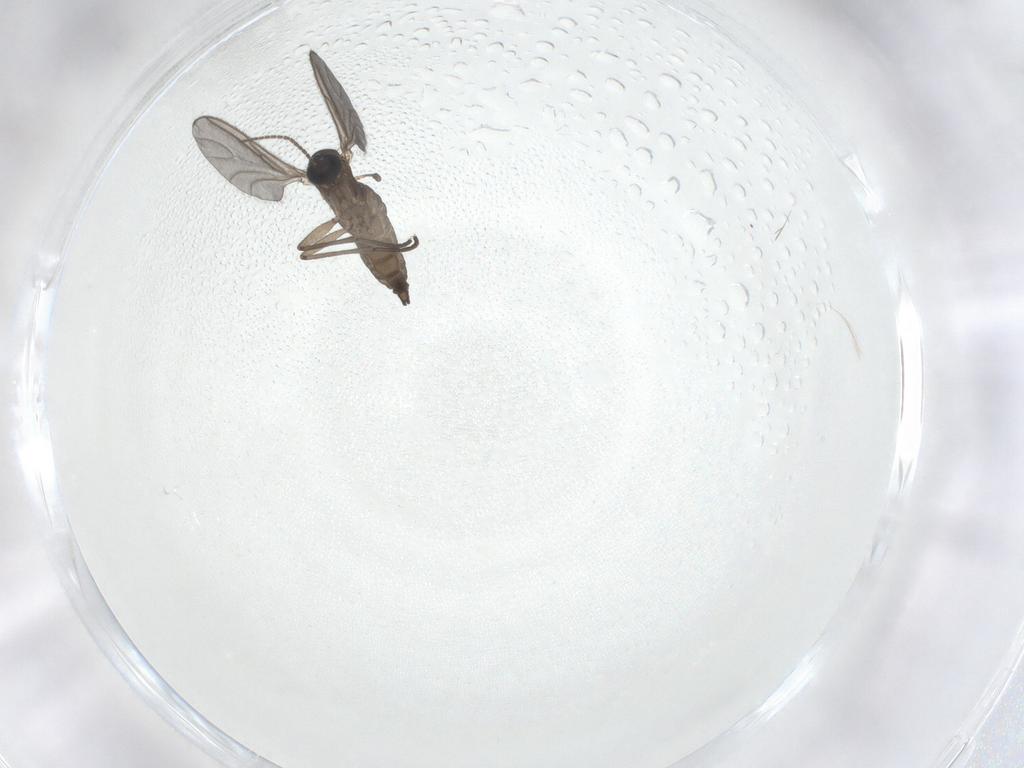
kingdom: Animalia
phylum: Arthropoda
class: Insecta
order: Diptera
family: Sciaridae
